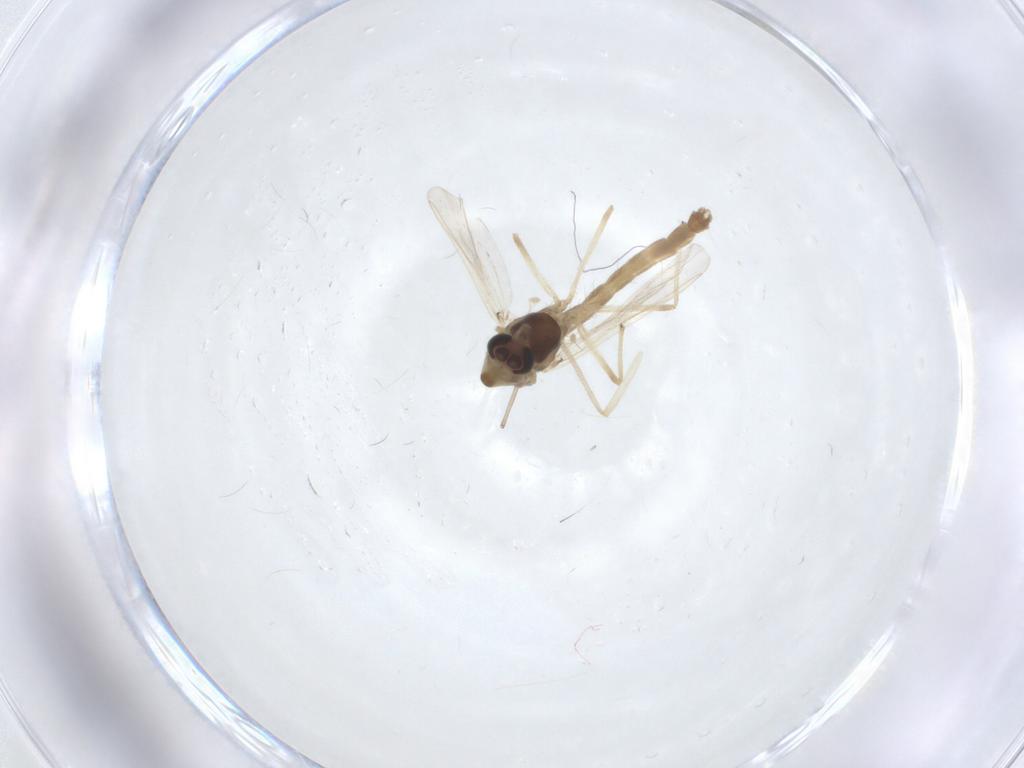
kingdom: Animalia
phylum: Arthropoda
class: Insecta
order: Diptera
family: Chironomidae
